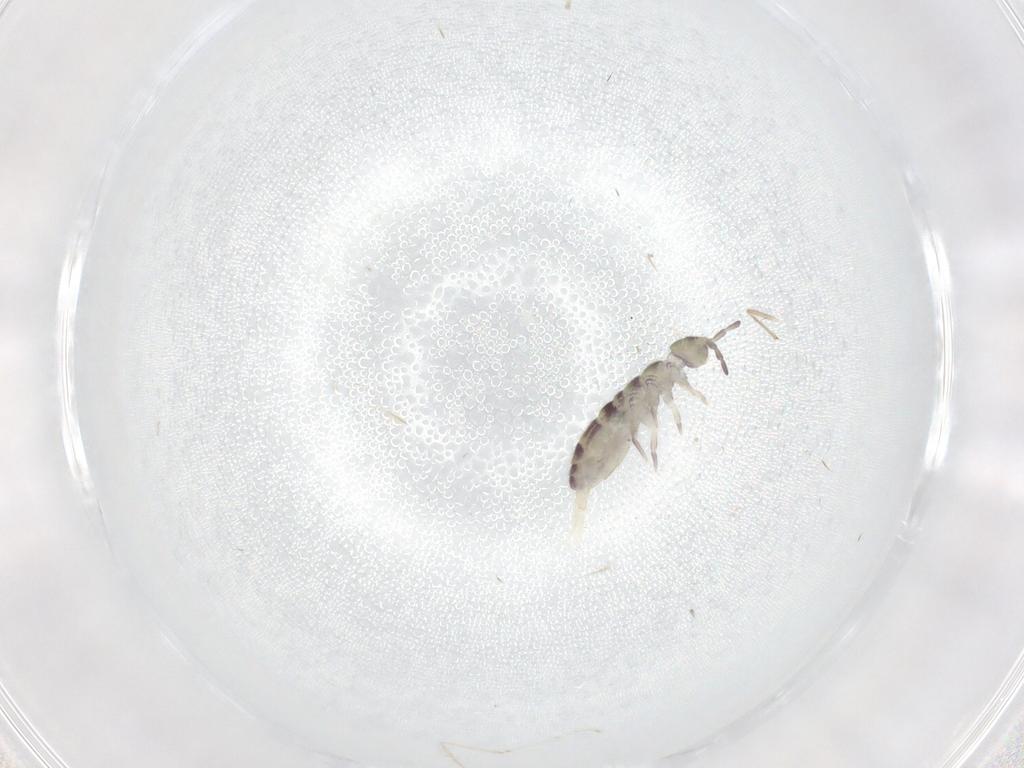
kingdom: Animalia
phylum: Arthropoda
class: Collembola
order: Entomobryomorpha
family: Isotomidae
